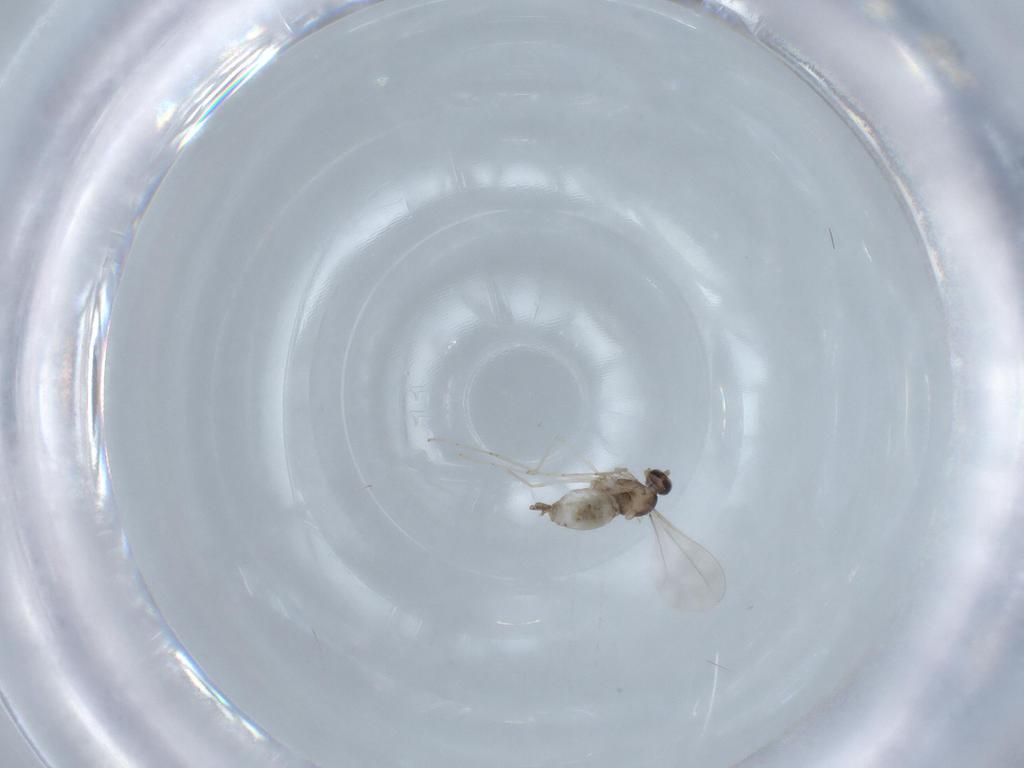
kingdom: Animalia
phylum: Arthropoda
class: Insecta
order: Diptera
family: Cecidomyiidae
